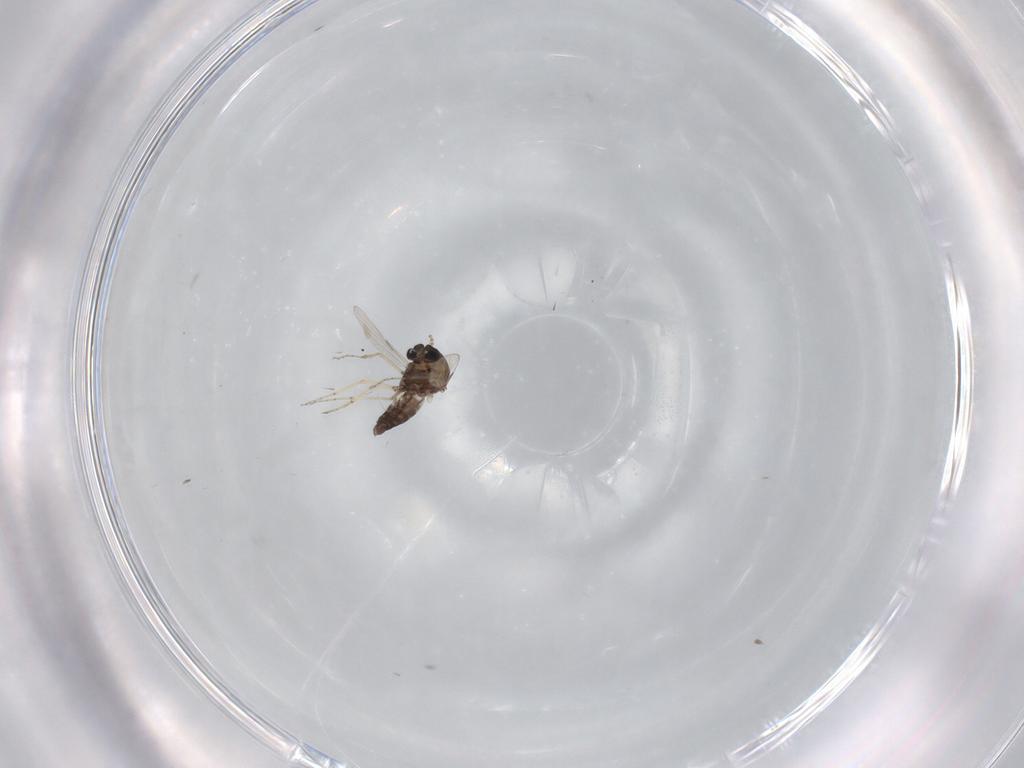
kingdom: Animalia
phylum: Arthropoda
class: Insecta
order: Diptera
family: Ceratopogonidae
